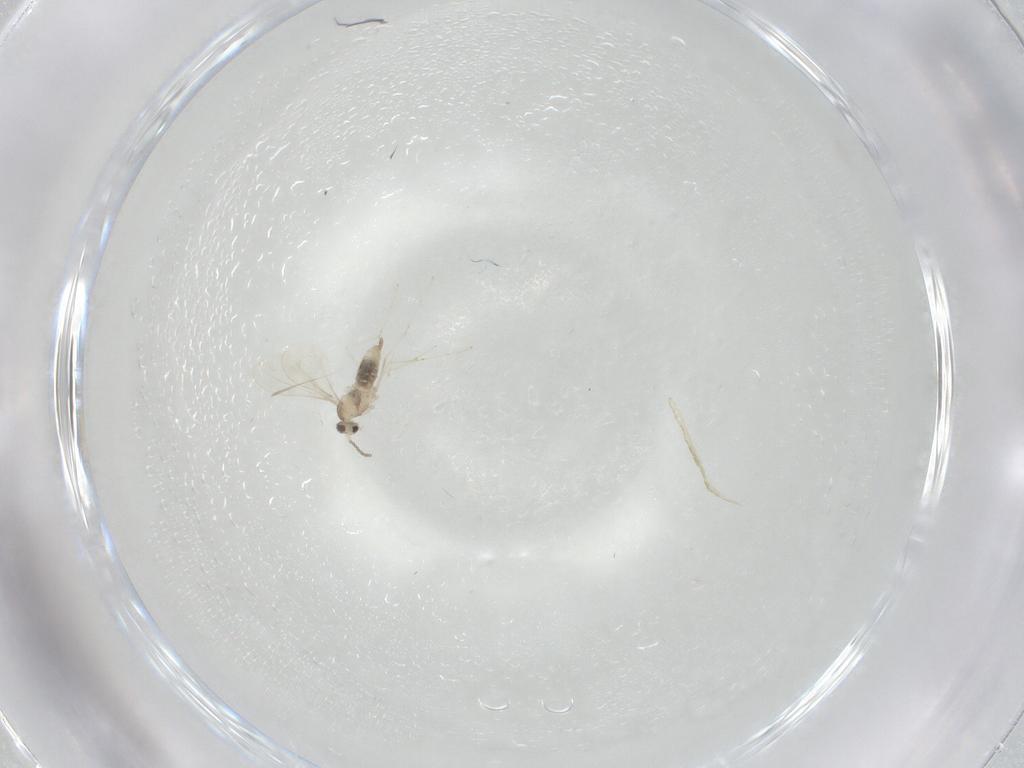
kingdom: Animalia
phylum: Arthropoda
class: Insecta
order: Diptera
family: Cecidomyiidae
